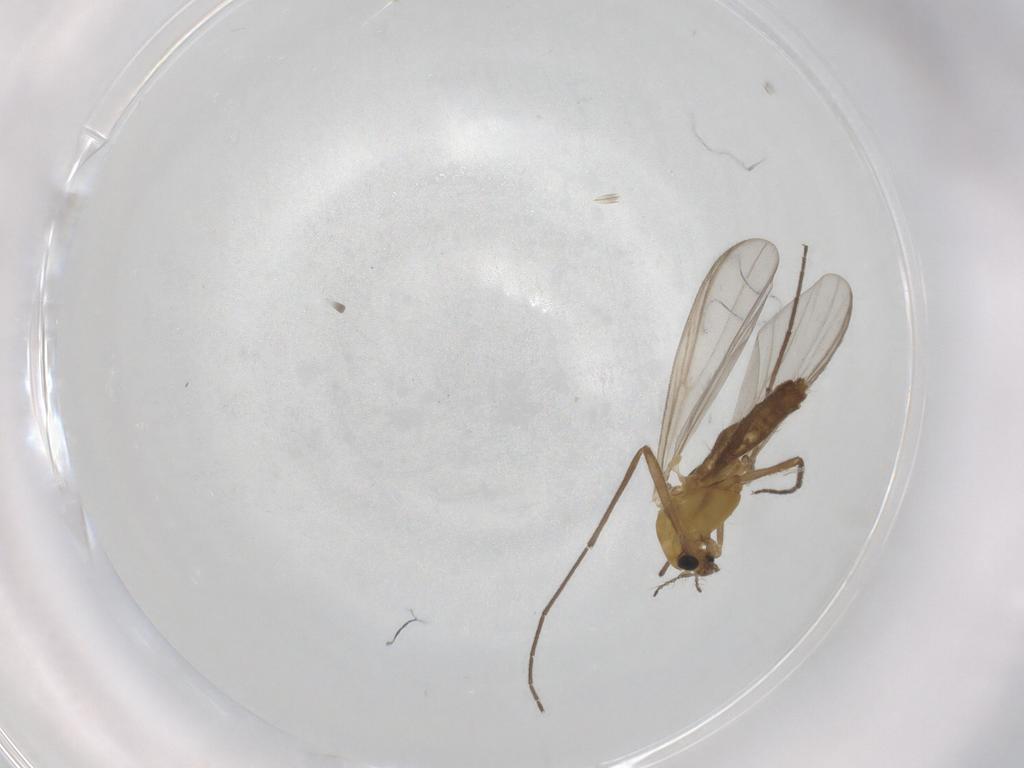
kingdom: Animalia
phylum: Arthropoda
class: Insecta
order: Diptera
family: Chironomidae
